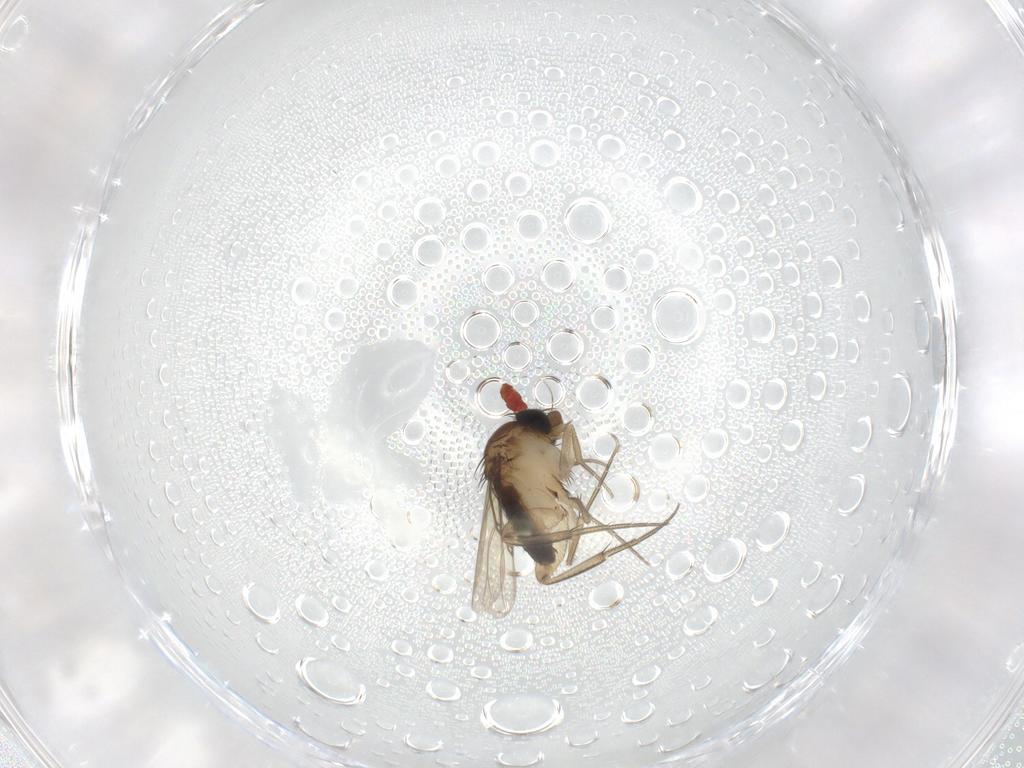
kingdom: Animalia
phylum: Arthropoda
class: Insecta
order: Diptera
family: Phoridae
